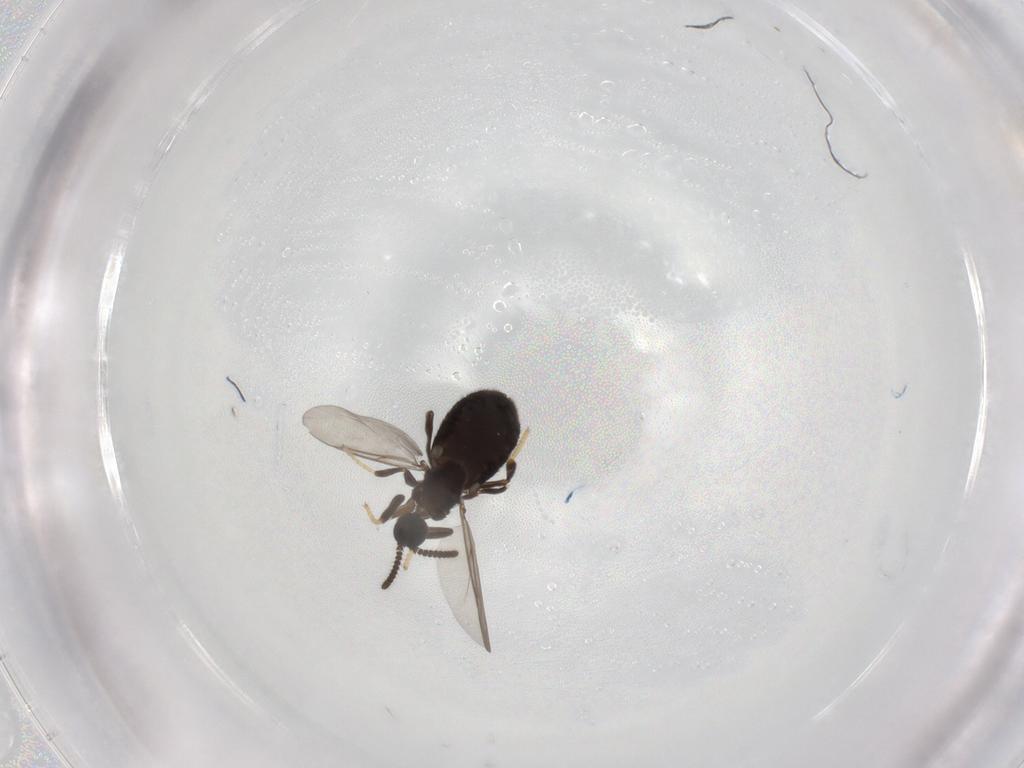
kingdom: Animalia
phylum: Arthropoda
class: Insecta
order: Diptera
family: Scatopsidae
